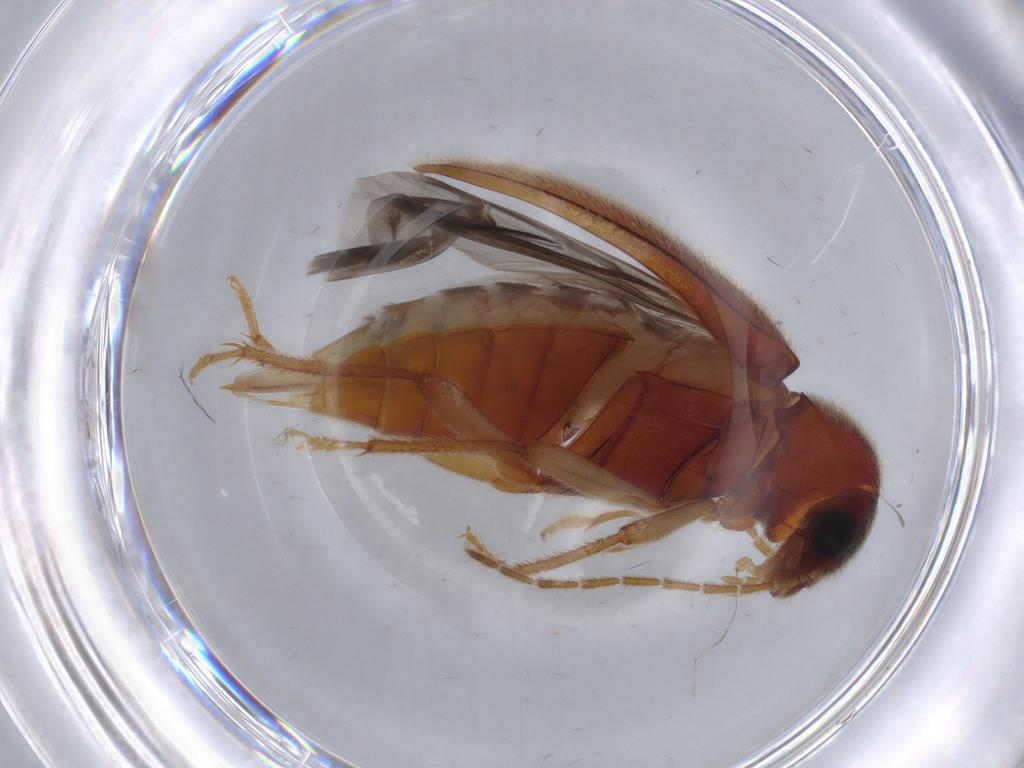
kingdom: Animalia
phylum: Arthropoda
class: Insecta
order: Coleoptera
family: Ptilodactylidae
